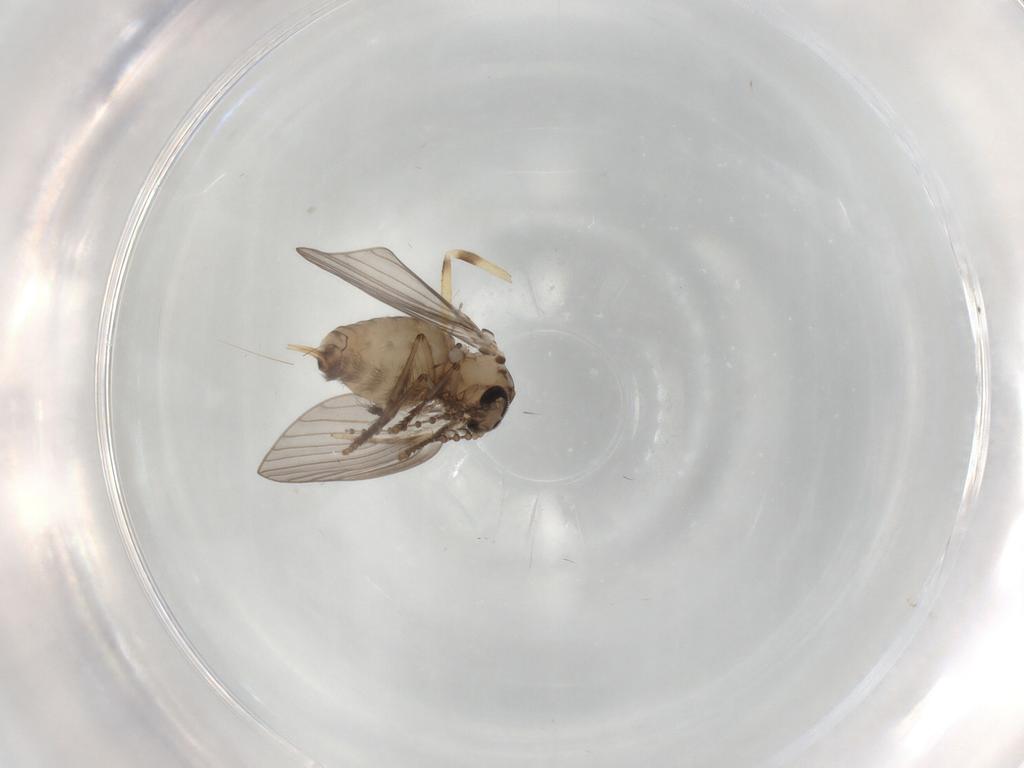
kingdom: Animalia
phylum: Arthropoda
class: Insecta
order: Diptera
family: Psychodidae
